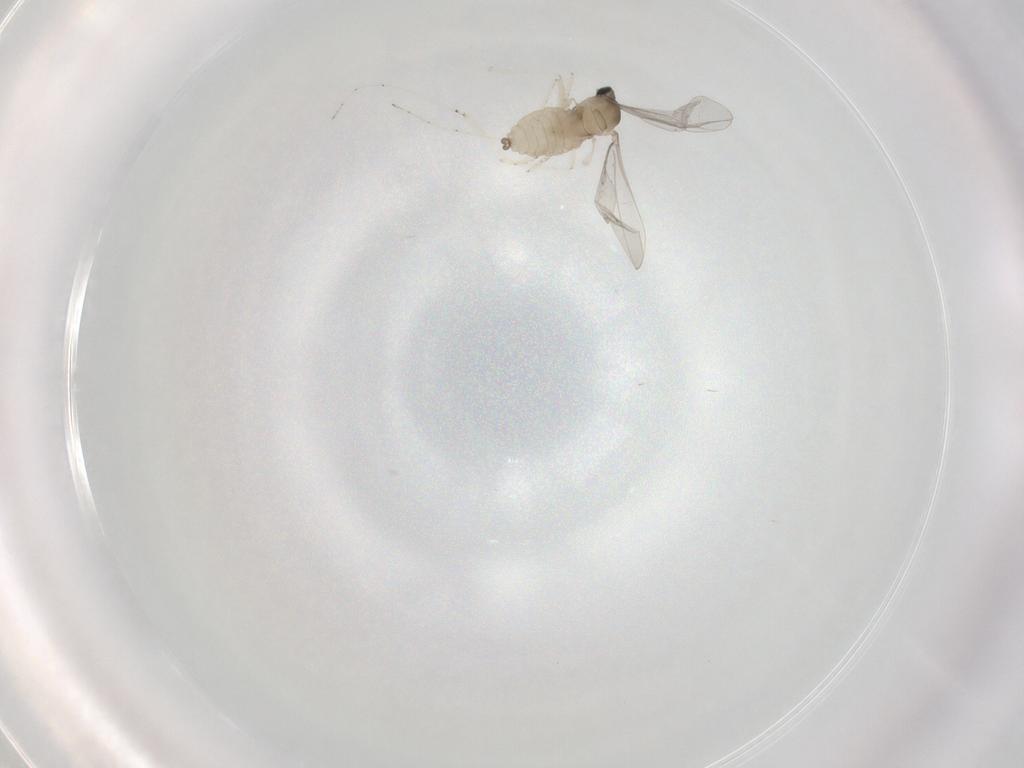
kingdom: Animalia
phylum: Arthropoda
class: Insecta
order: Diptera
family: Cecidomyiidae
